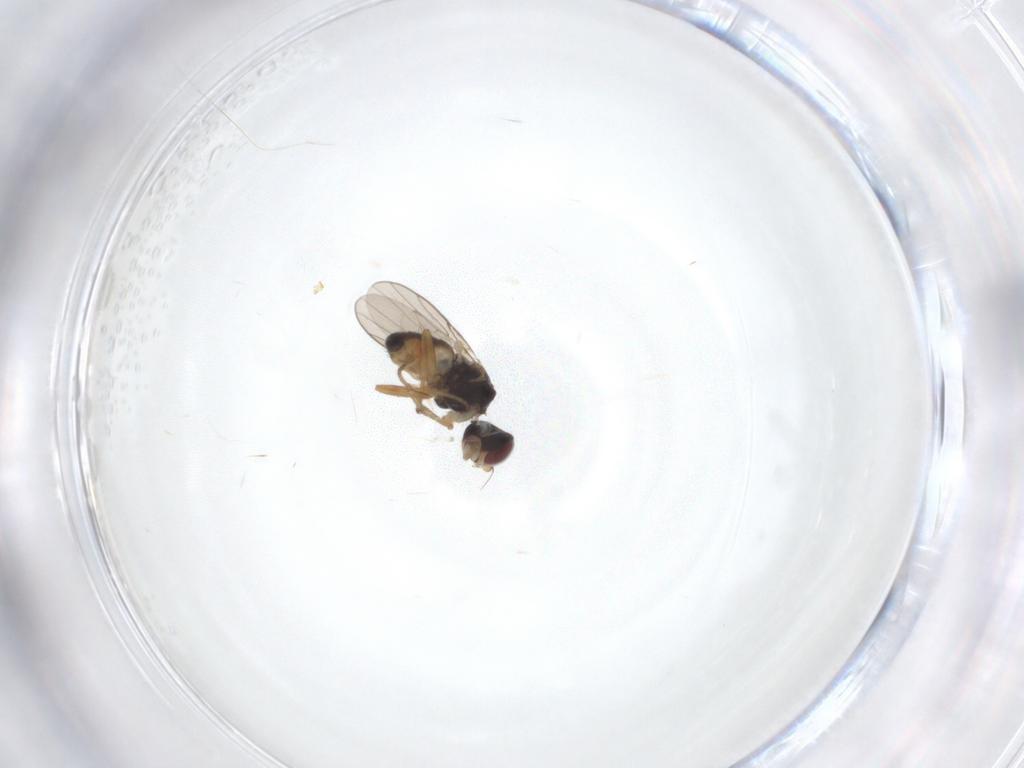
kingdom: Animalia
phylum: Arthropoda
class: Insecta
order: Diptera
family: Chloropidae
